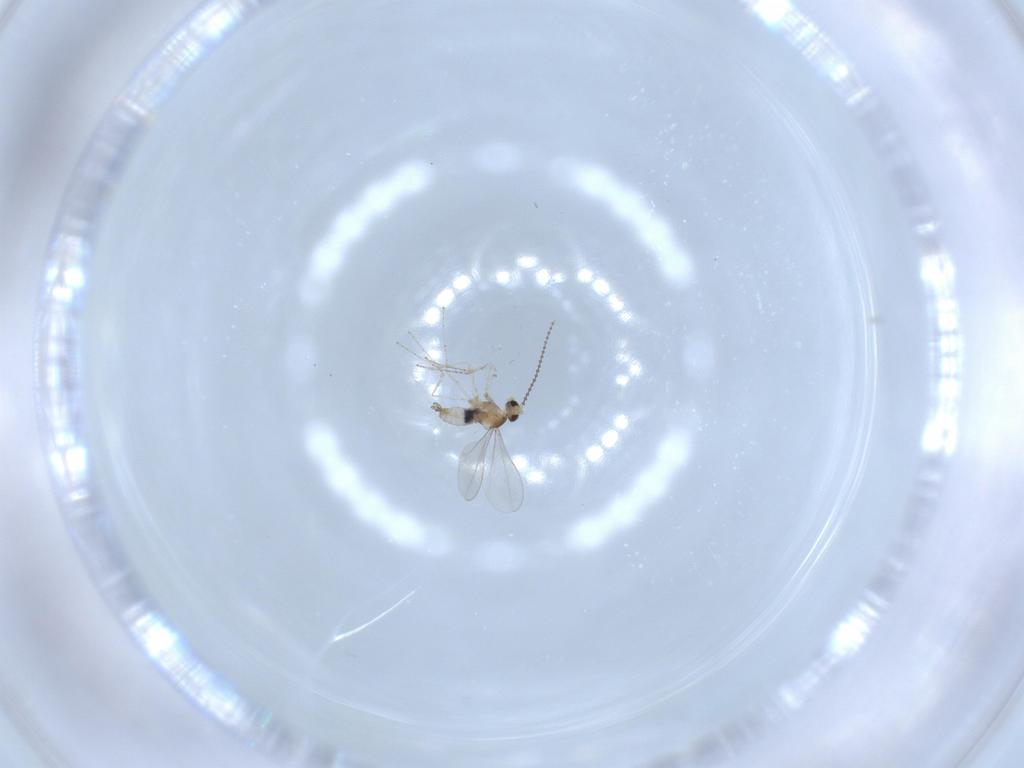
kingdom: Animalia
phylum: Arthropoda
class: Insecta
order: Diptera
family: Cecidomyiidae
